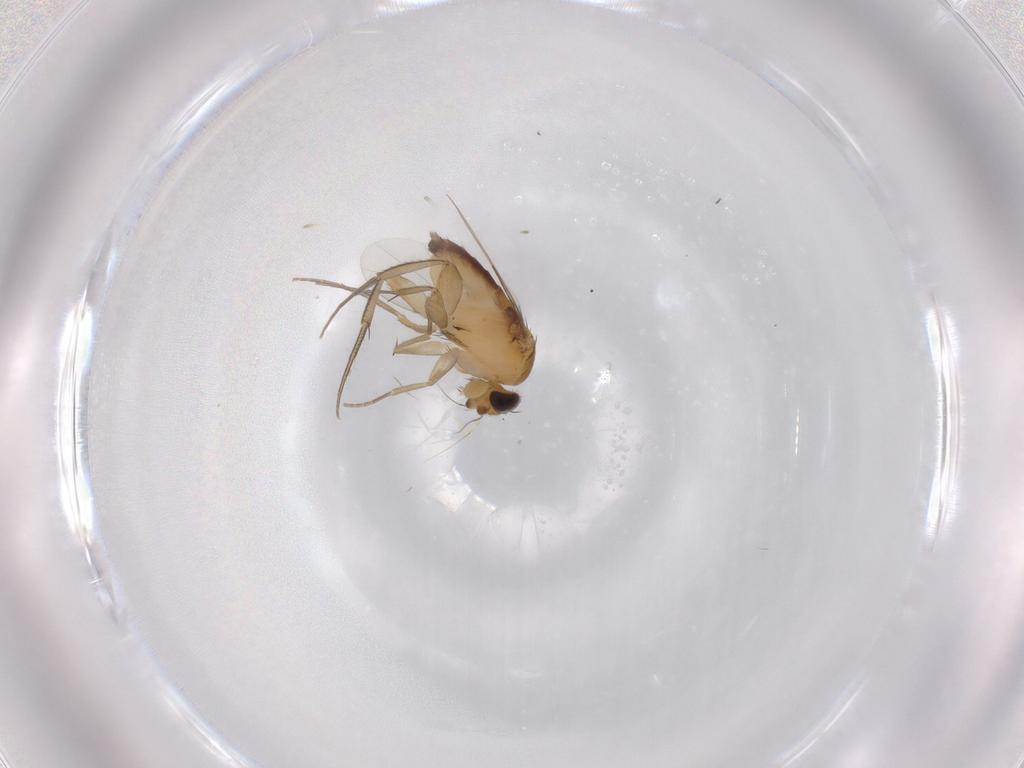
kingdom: Animalia
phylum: Arthropoda
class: Insecta
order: Diptera
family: Phoridae
